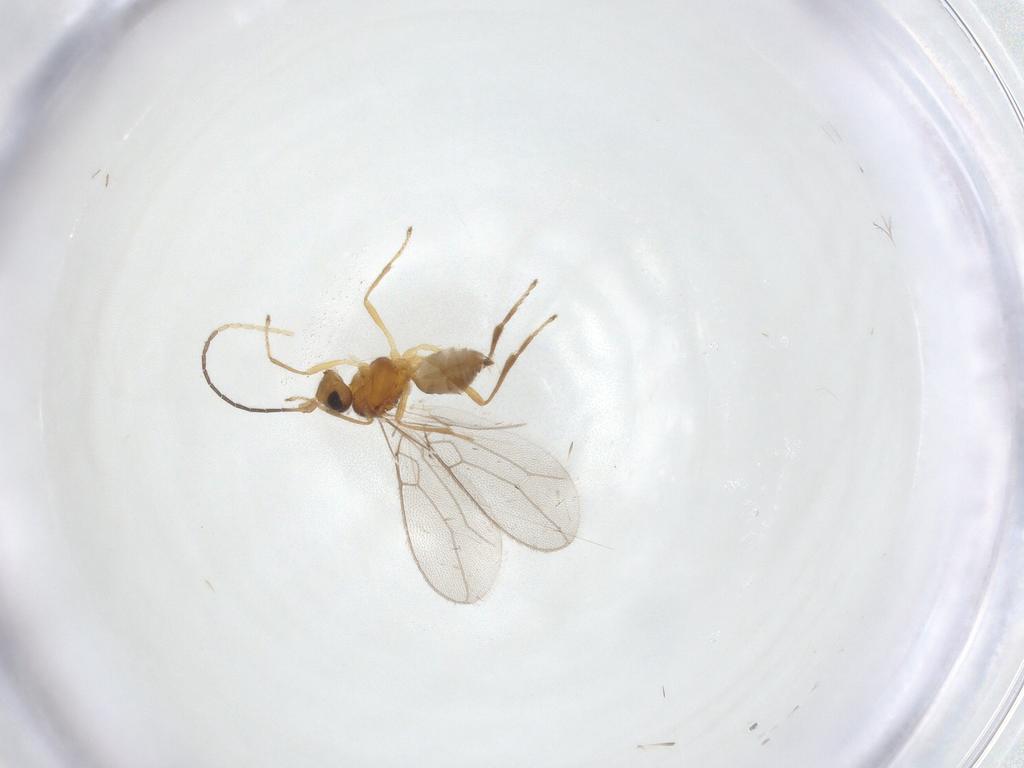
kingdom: Animalia
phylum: Arthropoda
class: Insecta
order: Hymenoptera
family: Braconidae
